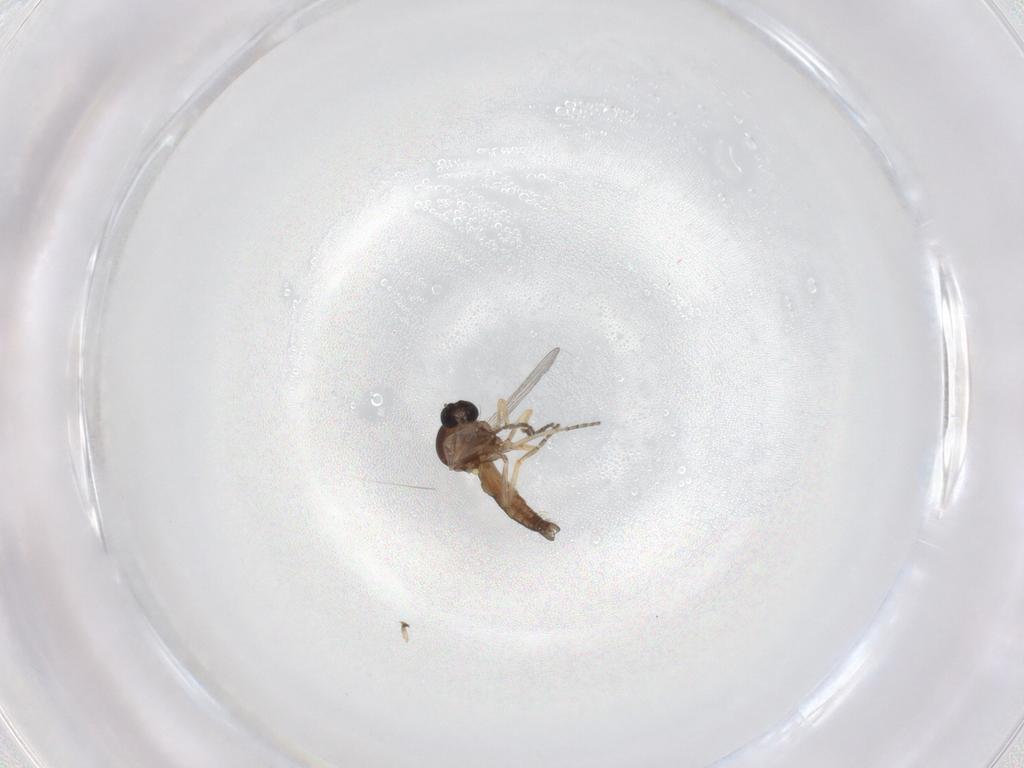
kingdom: Animalia
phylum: Arthropoda
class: Insecta
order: Diptera
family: Ceratopogonidae
